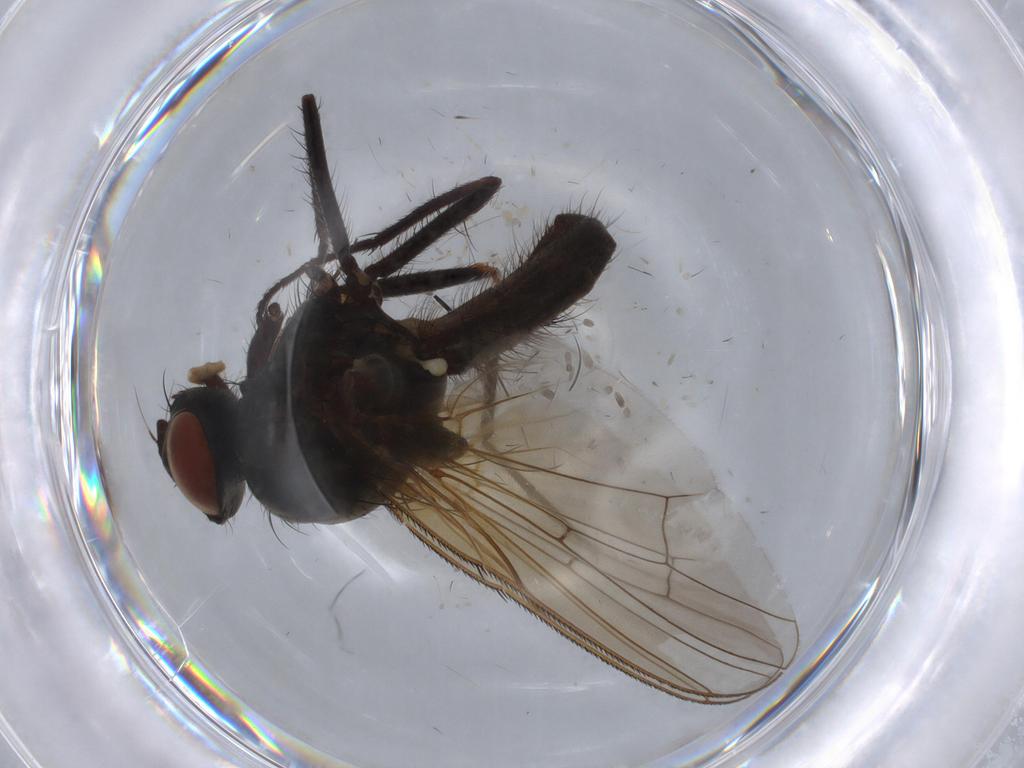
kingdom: Animalia
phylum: Arthropoda
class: Insecta
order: Diptera
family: Anthomyiidae
